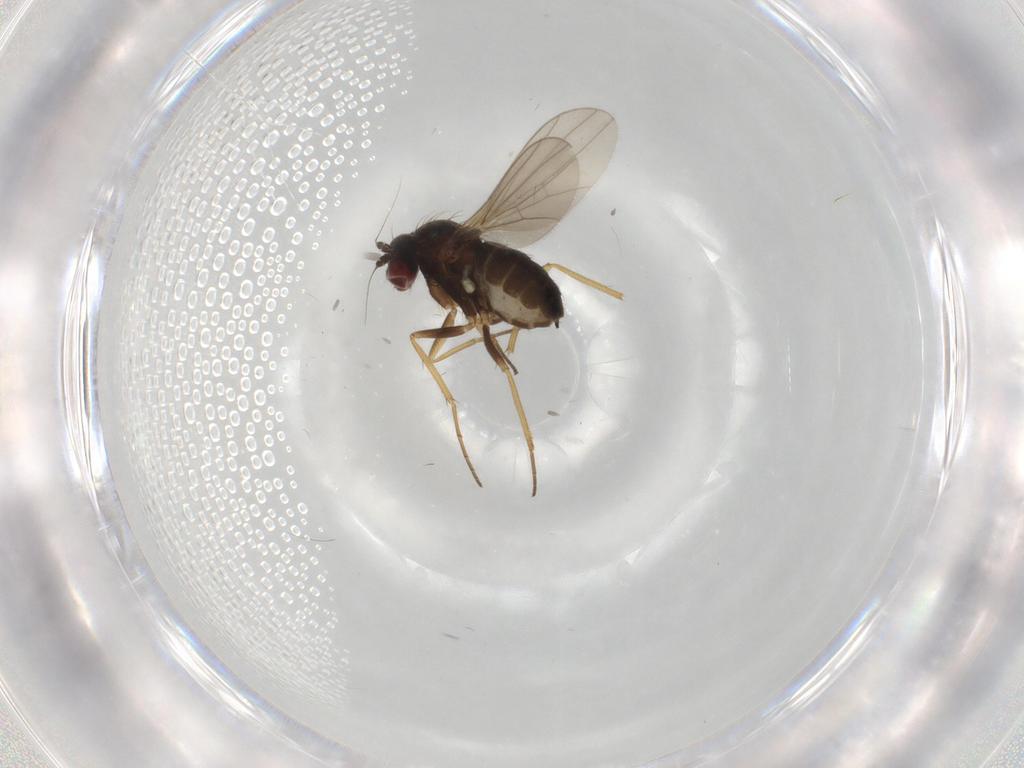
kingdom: Animalia
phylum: Arthropoda
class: Insecta
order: Diptera
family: Dolichopodidae
